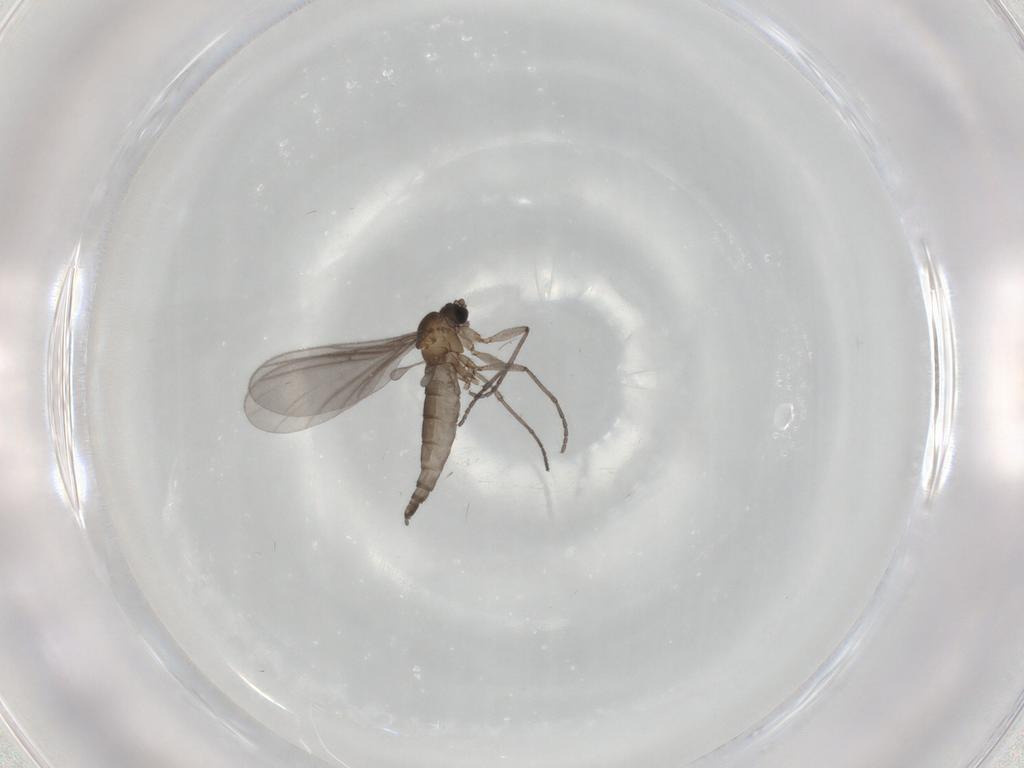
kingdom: Animalia
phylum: Arthropoda
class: Insecta
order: Diptera
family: Sciaridae
